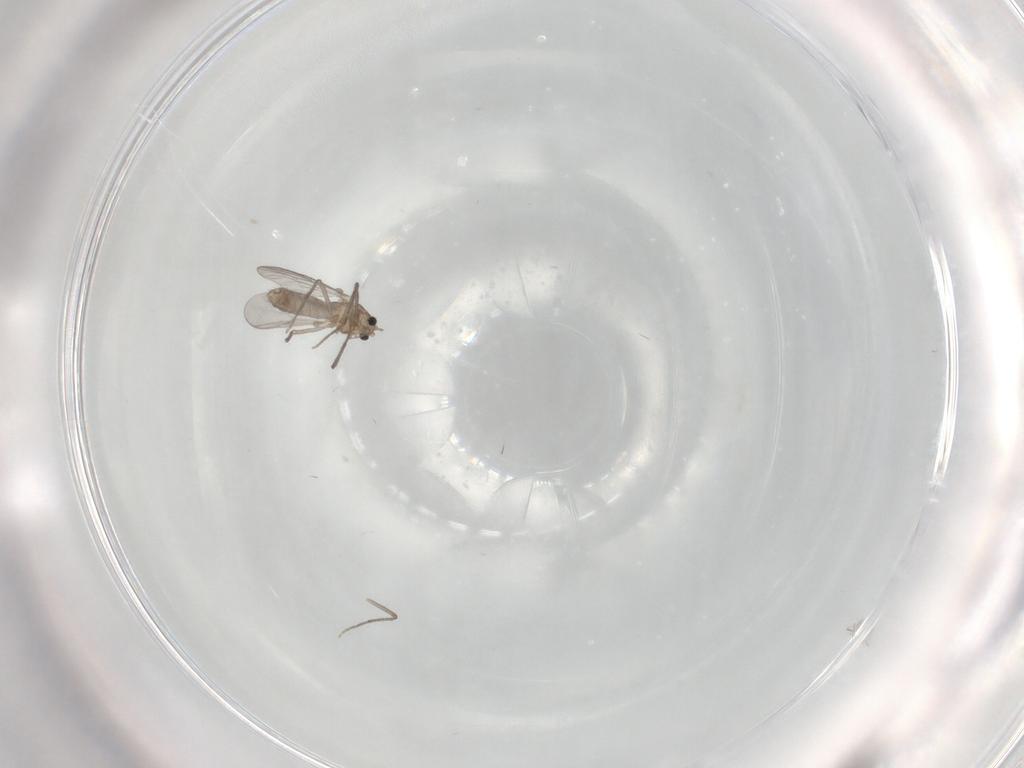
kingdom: Animalia
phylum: Arthropoda
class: Insecta
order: Diptera
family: Chironomidae
